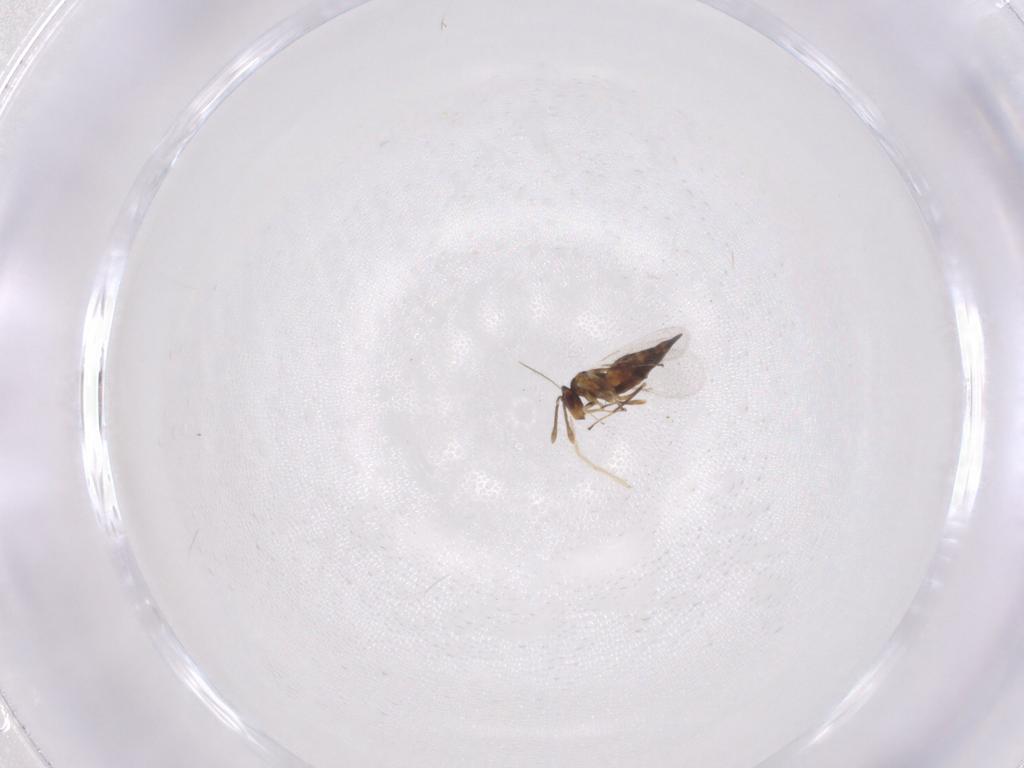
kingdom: Animalia
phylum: Arthropoda
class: Insecta
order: Hymenoptera
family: Eulophidae
